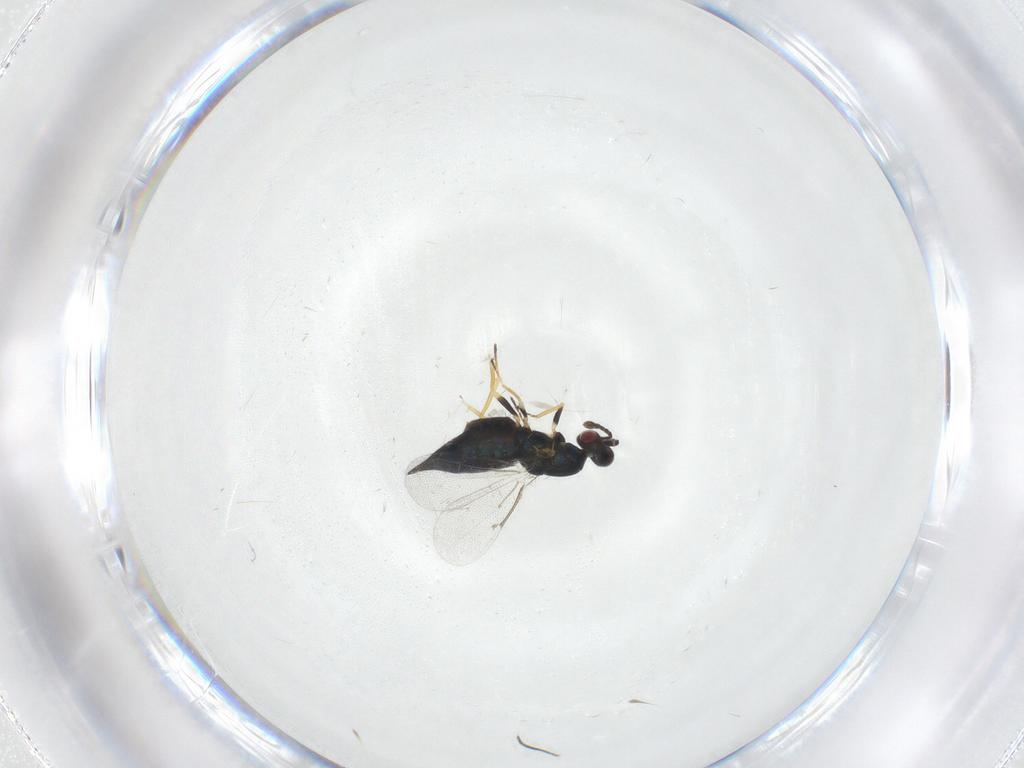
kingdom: Animalia
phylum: Arthropoda
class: Insecta
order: Hymenoptera
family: Eulophidae
